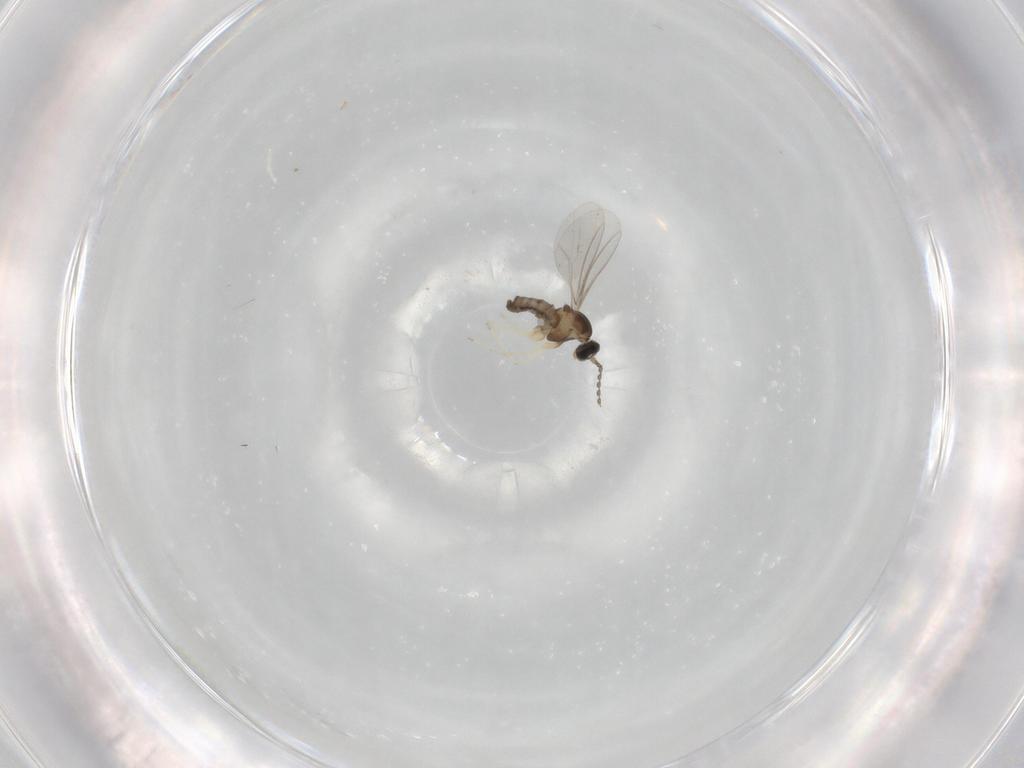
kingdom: Animalia
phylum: Arthropoda
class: Insecta
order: Diptera
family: Cecidomyiidae
